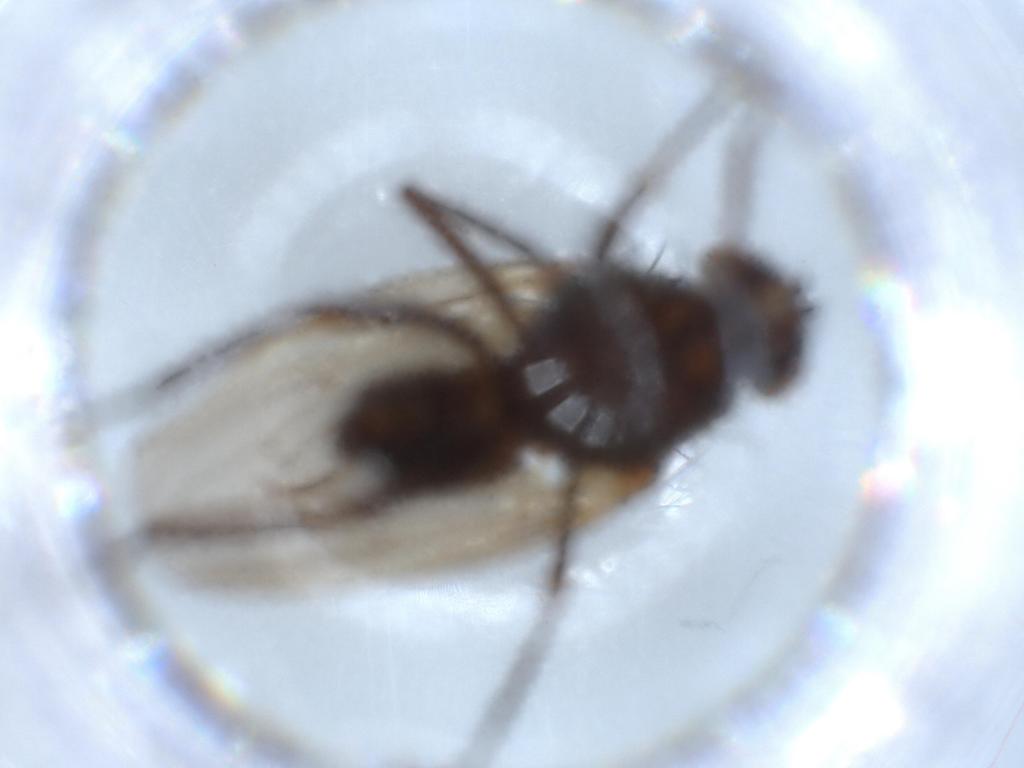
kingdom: Animalia
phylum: Arthropoda
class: Insecta
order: Diptera
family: Anthomyiidae
